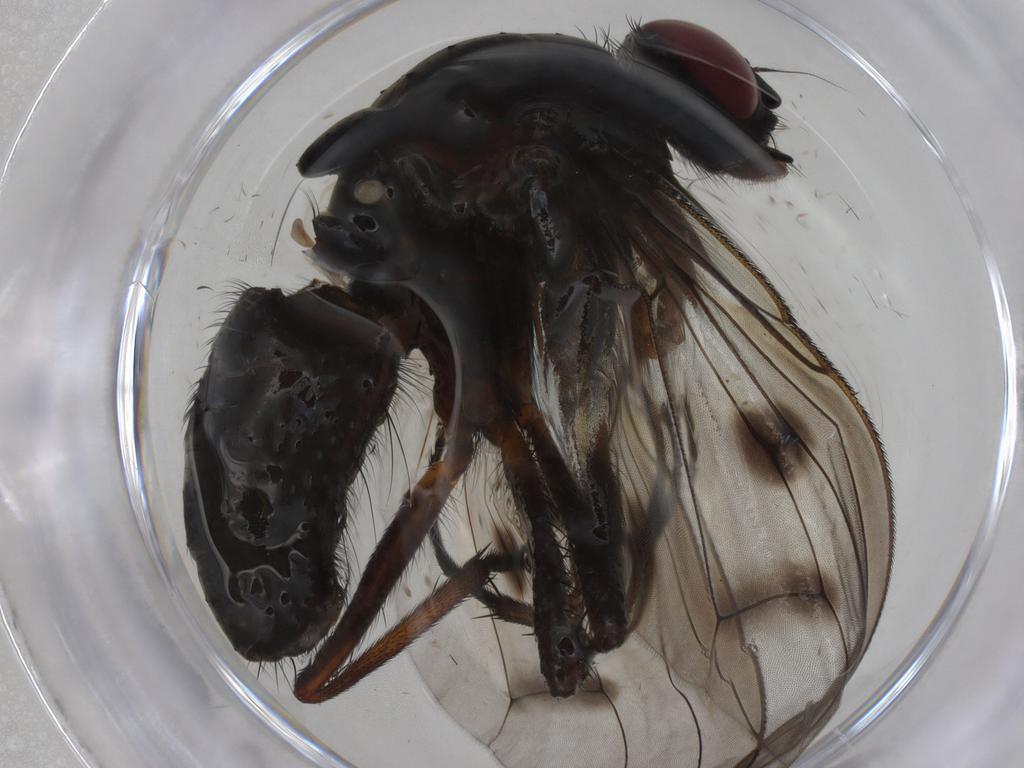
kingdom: Animalia
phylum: Arthropoda
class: Insecta
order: Diptera
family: Muscidae
